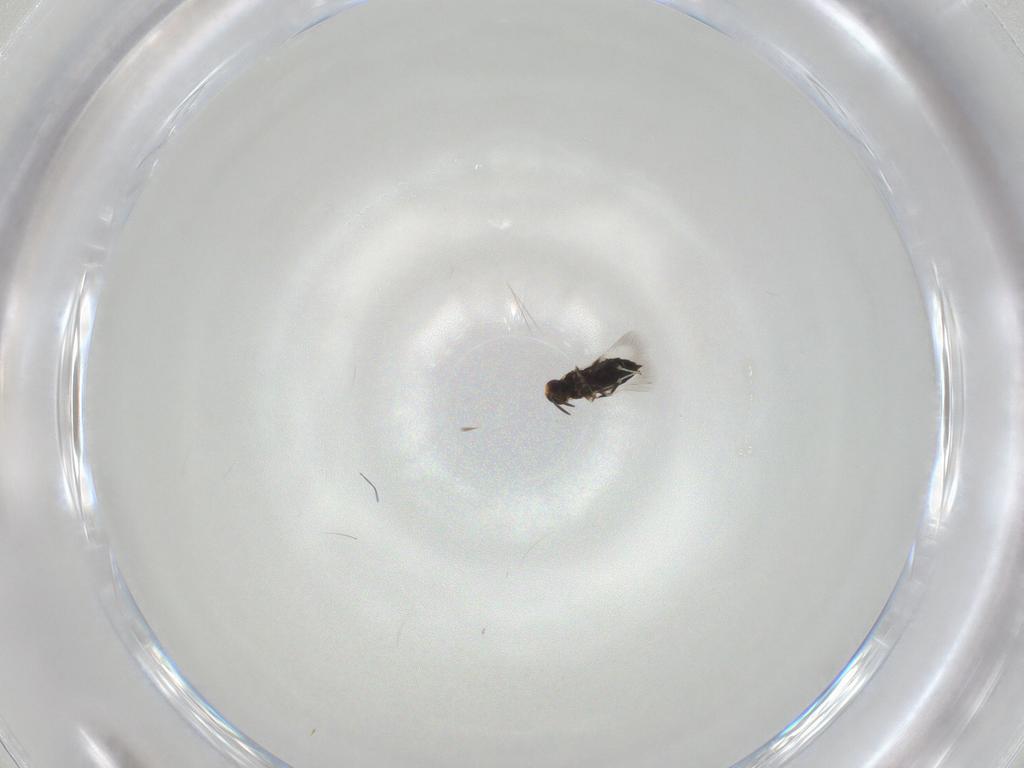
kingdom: Animalia
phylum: Arthropoda
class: Insecta
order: Hymenoptera
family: Signiphoridae
